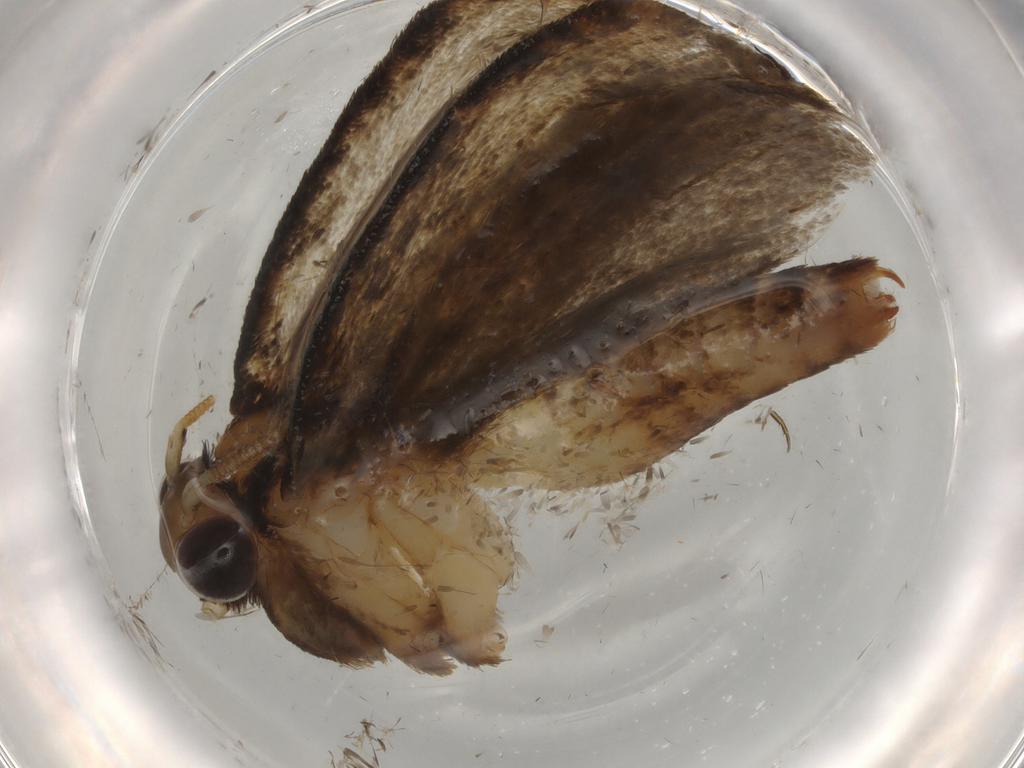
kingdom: Animalia
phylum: Arthropoda
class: Insecta
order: Lepidoptera
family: Tineidae
